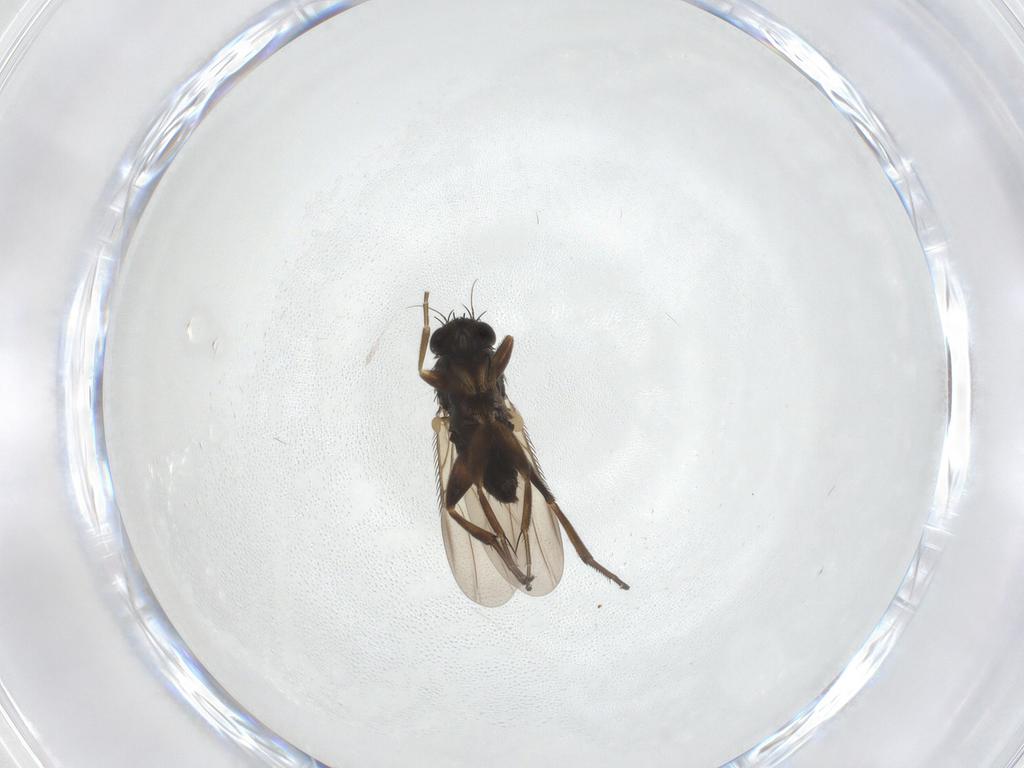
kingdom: Animalia
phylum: Arthropoda
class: Insecta
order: Diptera
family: Phoridae
